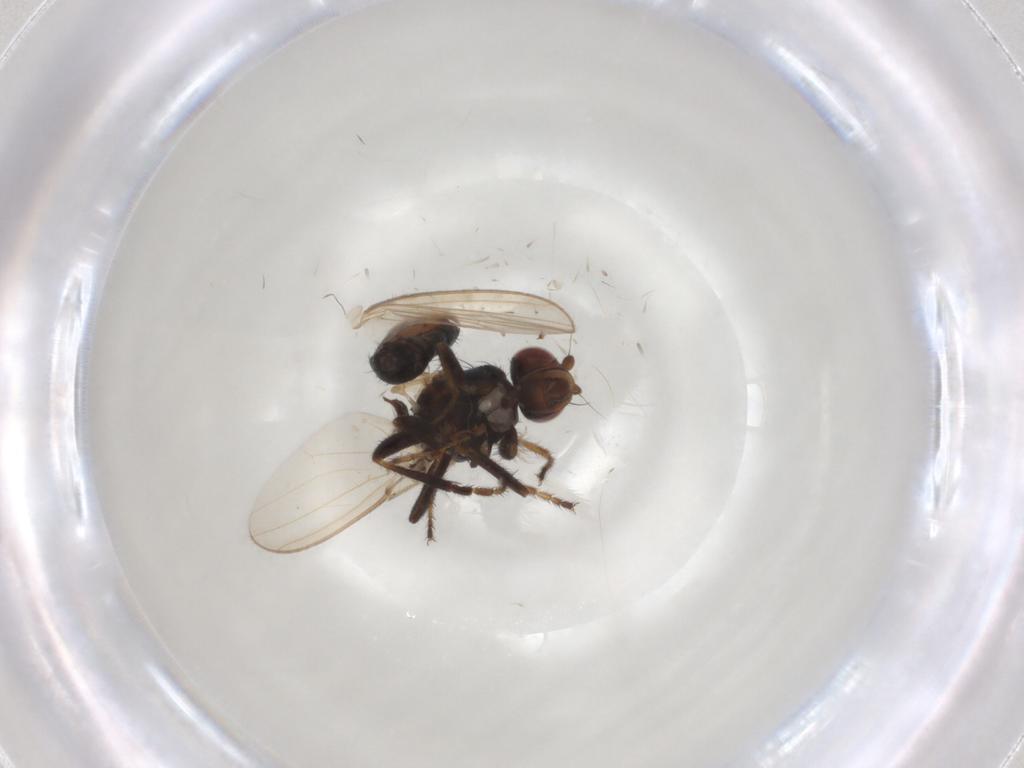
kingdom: Animalia
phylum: Arthropoda
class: Insecta
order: Diptera
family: Sphaeroceridae
